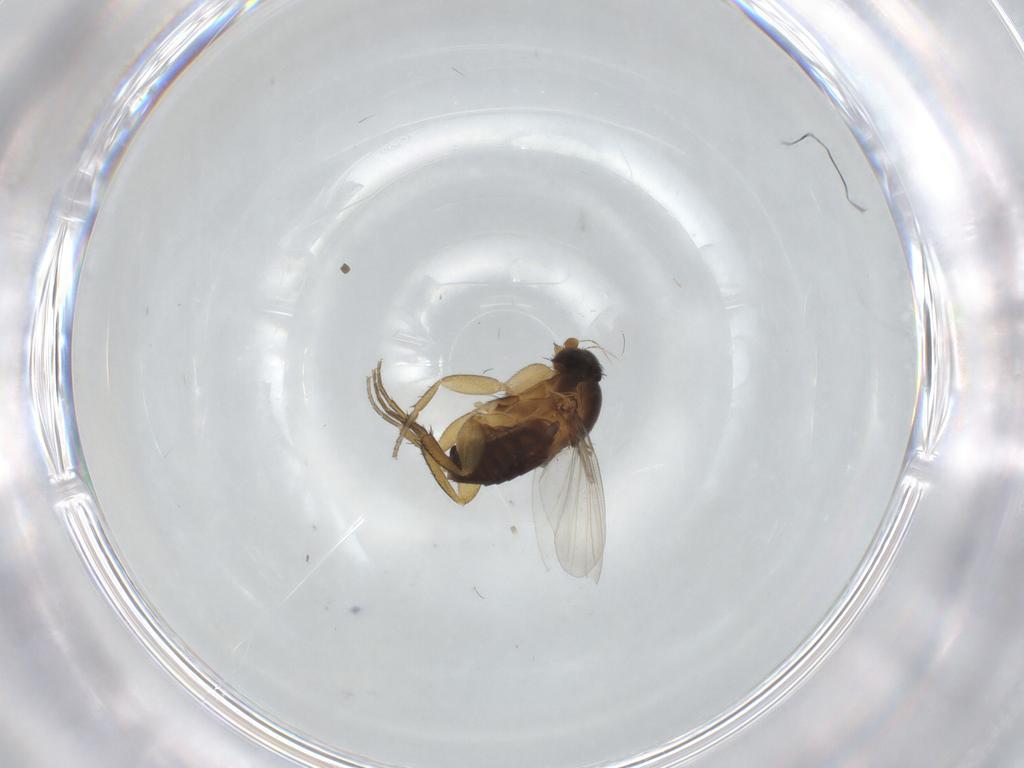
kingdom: Animalia
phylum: Arthropoda
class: Insecta
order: Diptera
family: Phoridae
